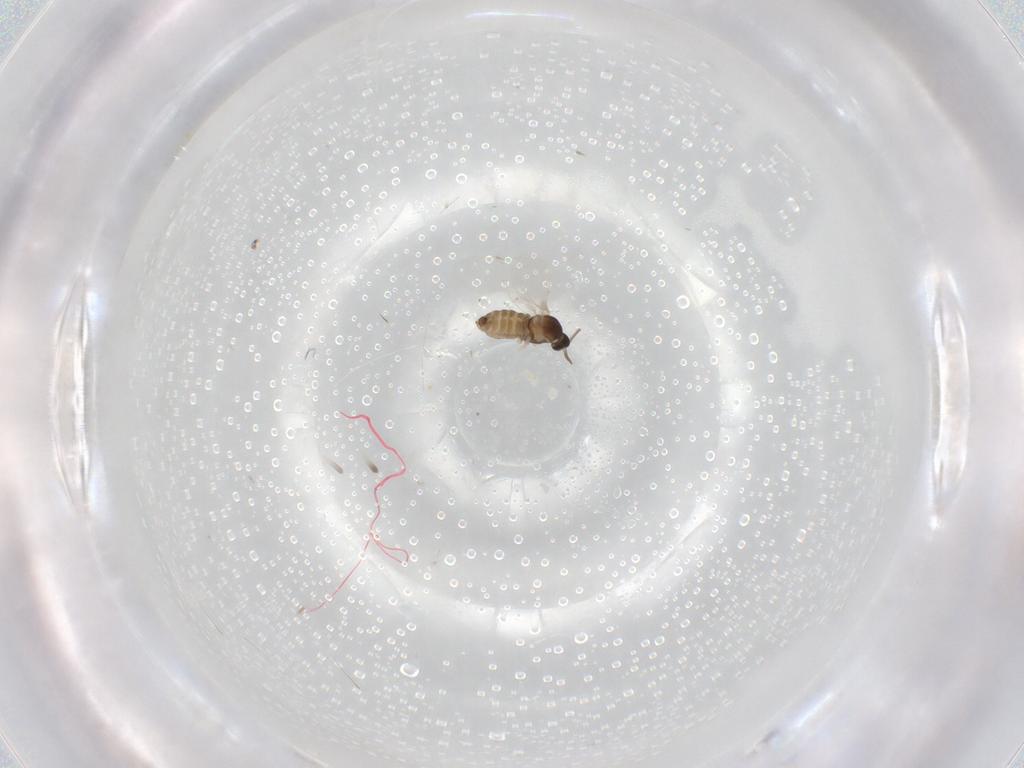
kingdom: Animalia
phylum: Arthropoda
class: Insecta
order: Diptera
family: Cecidomyiidae
